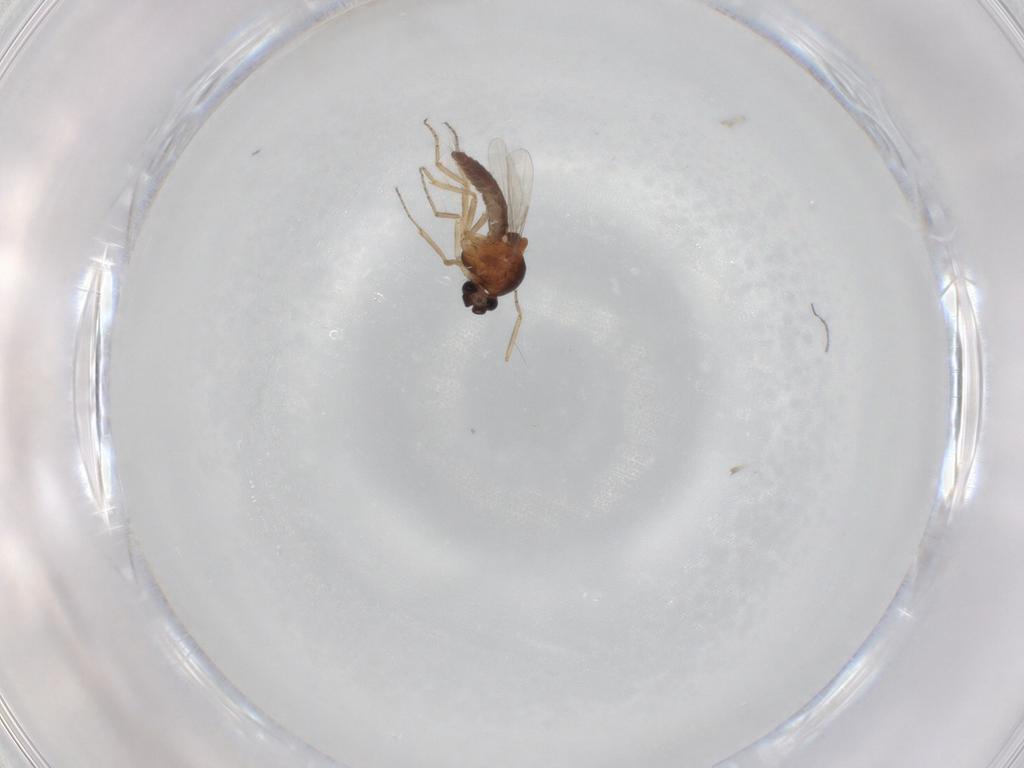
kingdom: Animalia
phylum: Arthropoda
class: Insecta
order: Diptera
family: Ceratopogonidae
